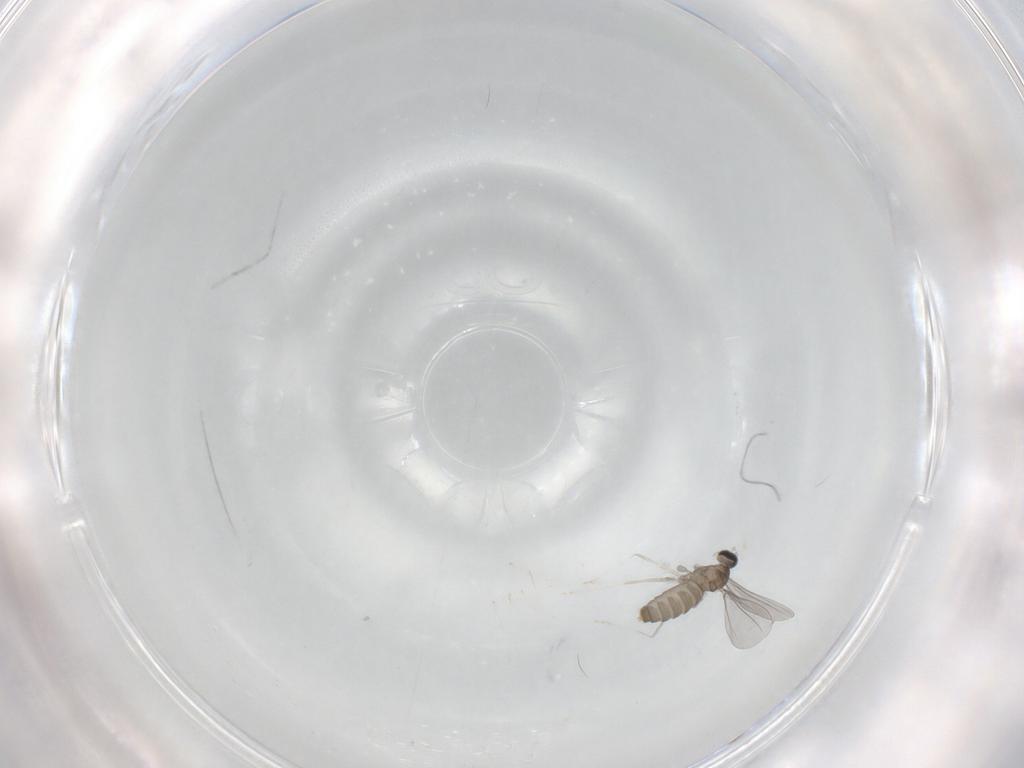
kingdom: Animalia
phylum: Arthropoda
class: Insecta
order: Diptera
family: Cecidomyiidae
